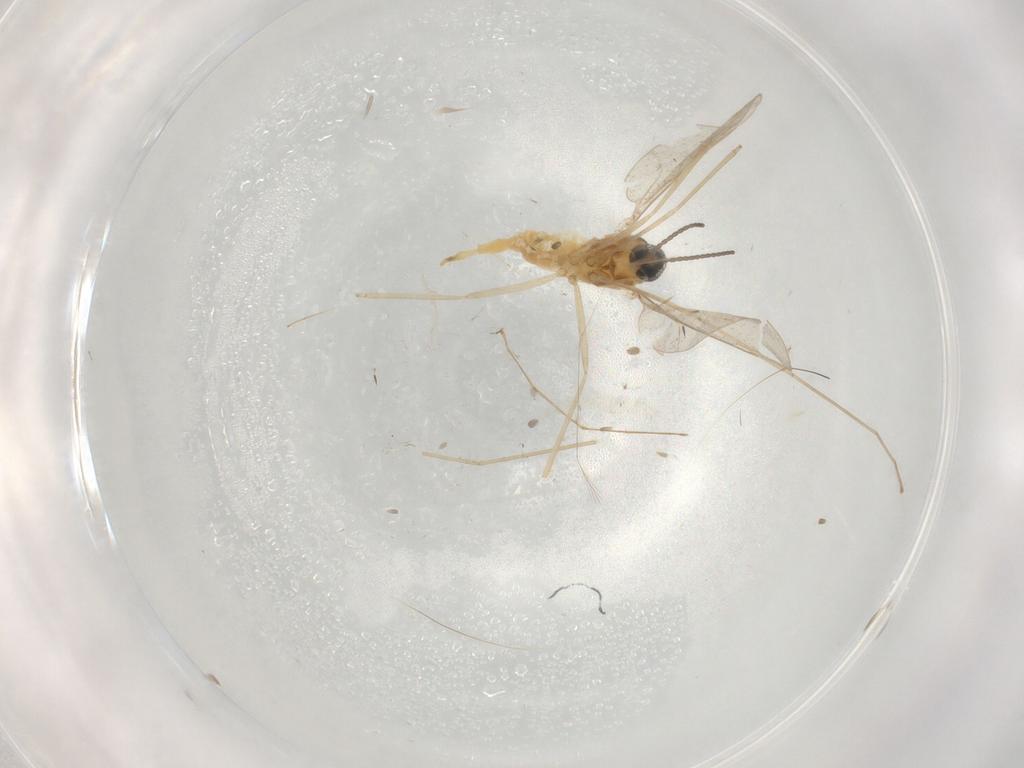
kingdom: Animalia
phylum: Arthropoda
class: Insecta
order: Diptera
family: Cecidomyiidae
